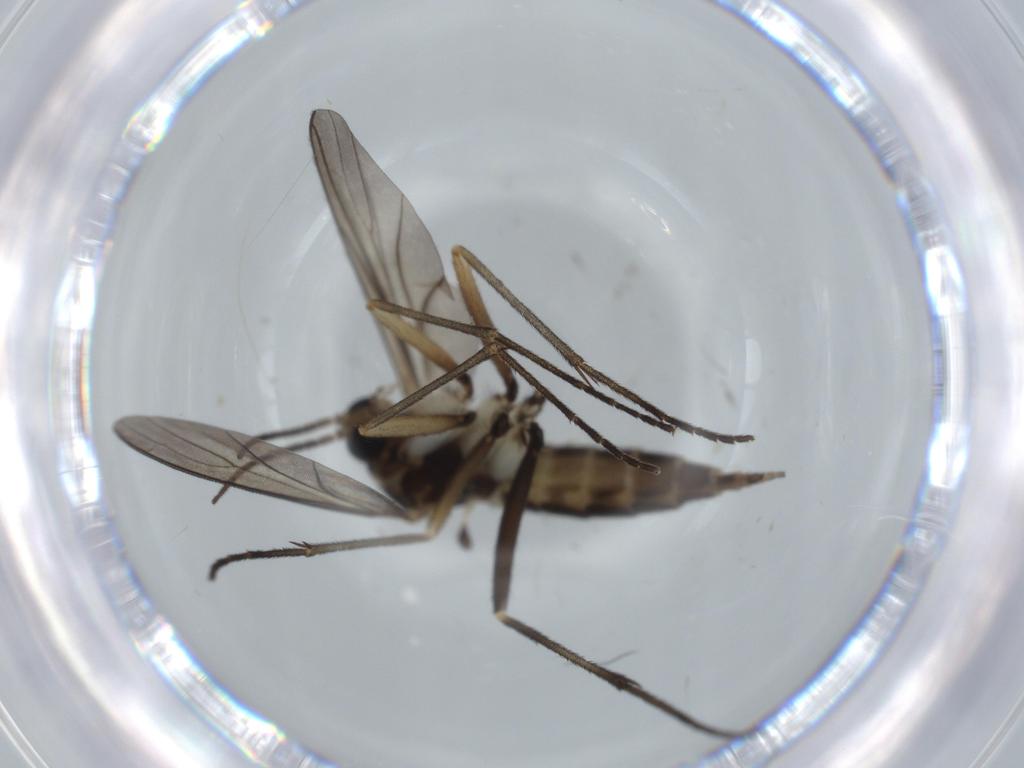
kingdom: Animalia
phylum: Arthropoda
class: Insecta
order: Diptera
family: Sciaridae
